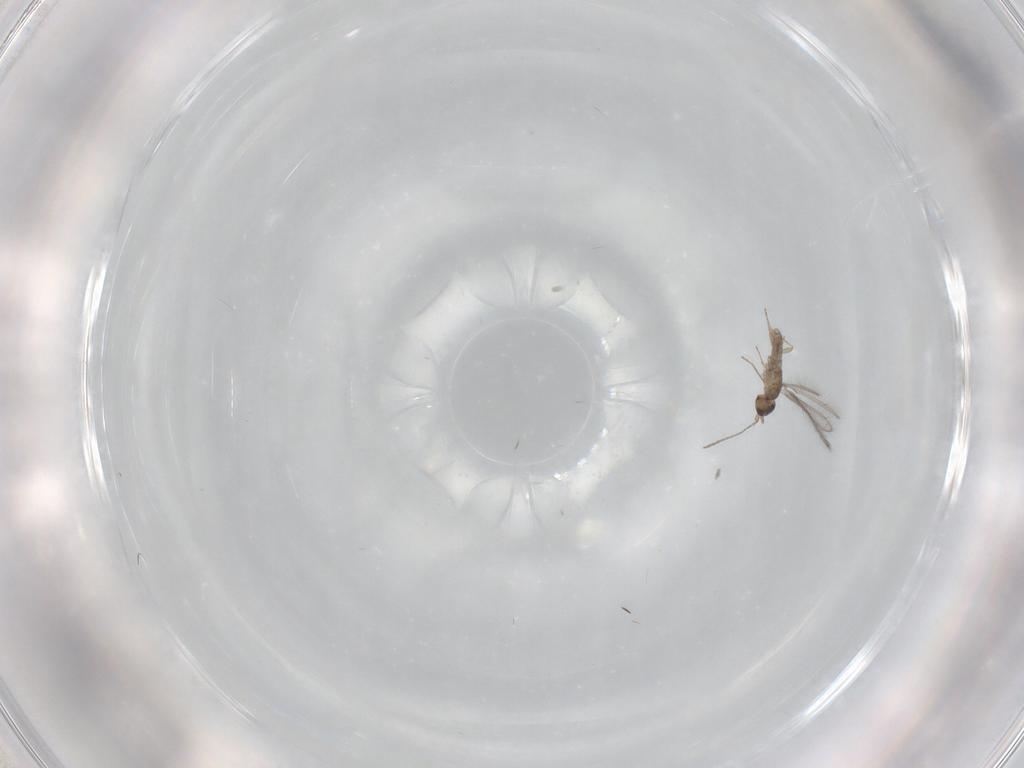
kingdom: Animalia
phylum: Arthropoda
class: Insecta
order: Hymenoptera
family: Mymaridae
